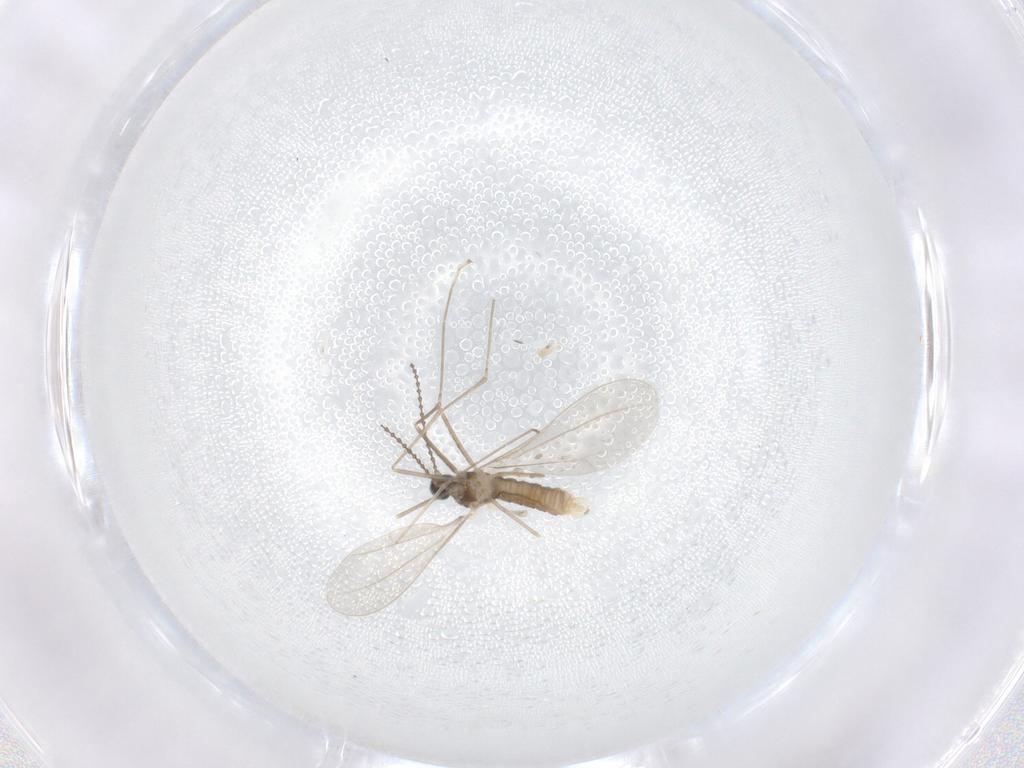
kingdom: Animalia
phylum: Arthropoda
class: Insecta
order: Diptera
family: Cecidomyiidae
